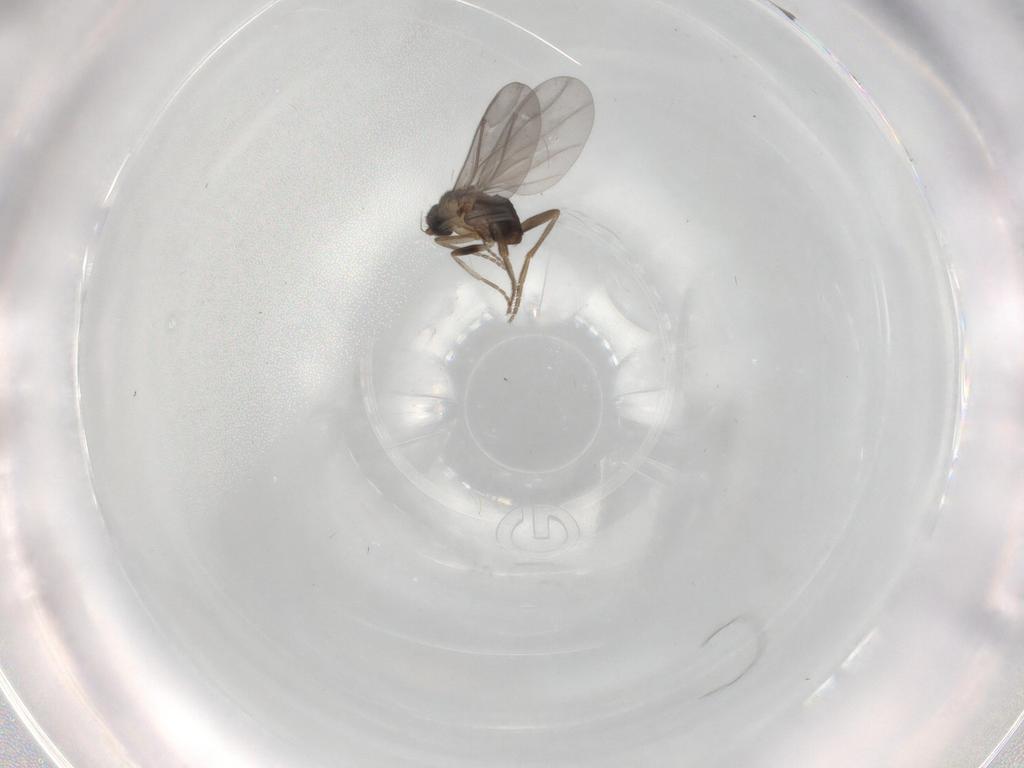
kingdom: Animalia
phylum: Arthropoda
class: Insecta
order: Diptera
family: Phoridae
